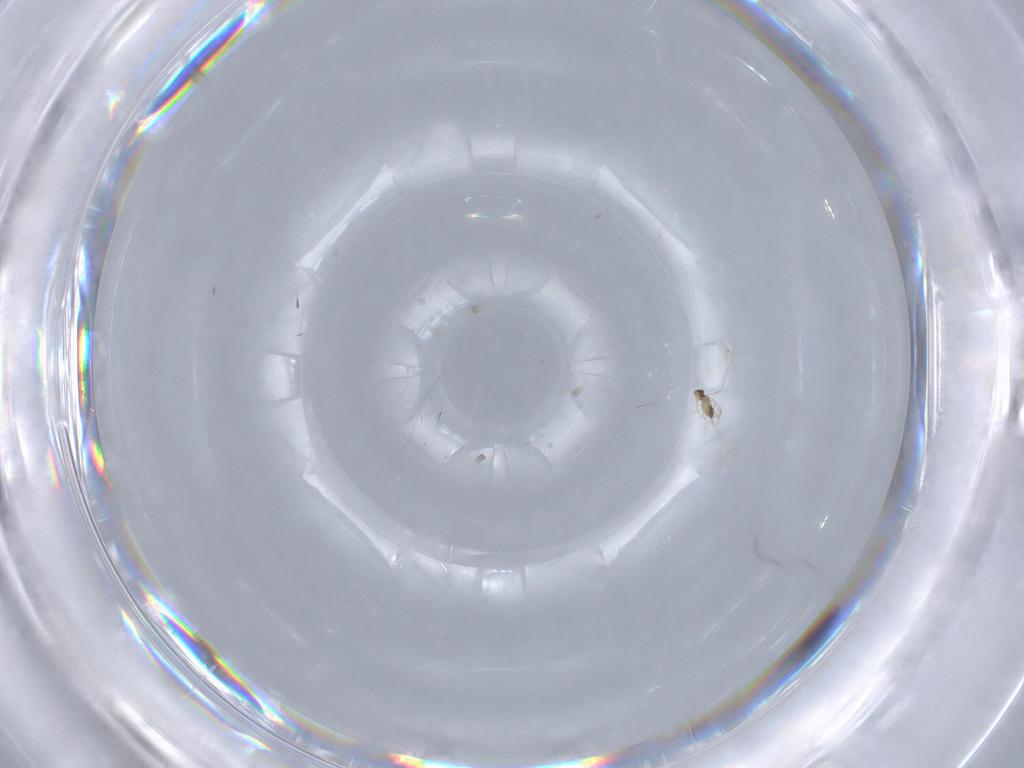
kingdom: Animalia
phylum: Arthropoda
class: Insecta
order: Hymenoptera
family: Mymaridae
